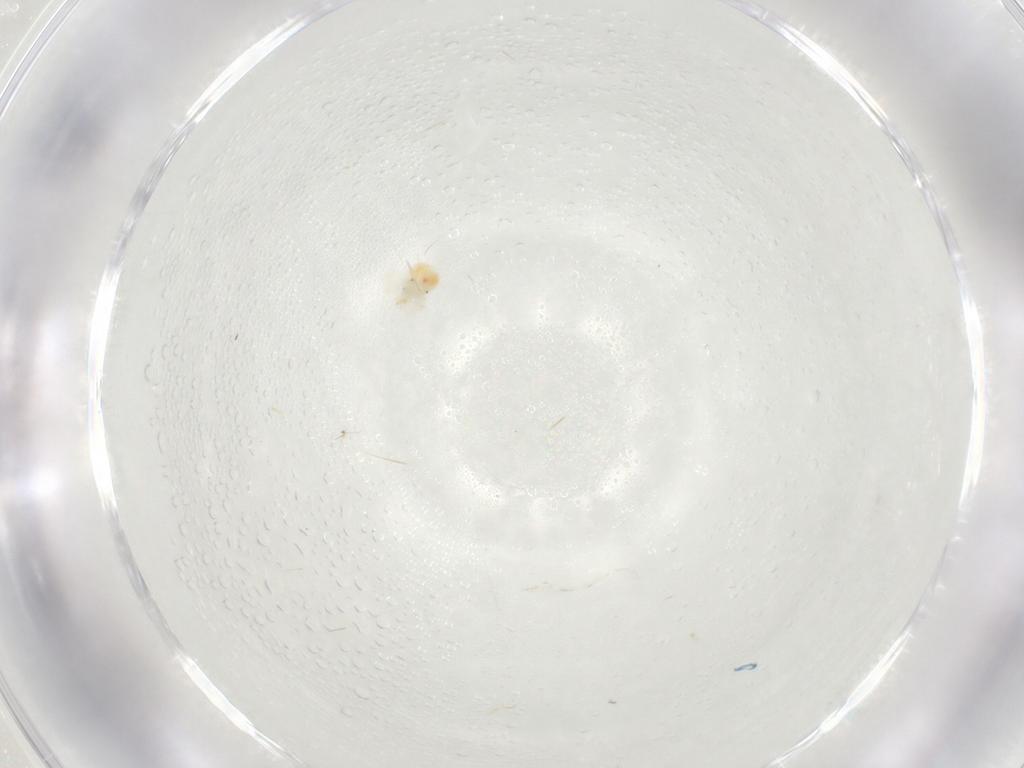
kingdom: Animalia
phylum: Arthropoda
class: Arachnida
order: Trombidiformes
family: Anystidae
